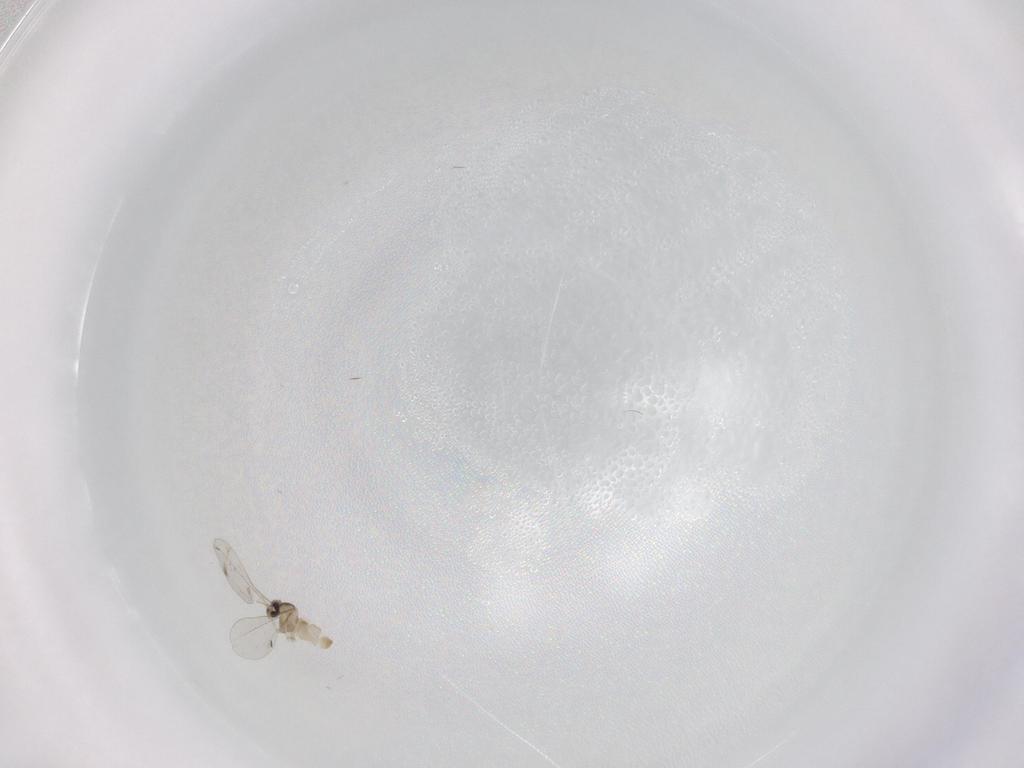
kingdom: Animalia
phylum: Arthropoda
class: Insecta
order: Diptera
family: Cecidomyiidae
